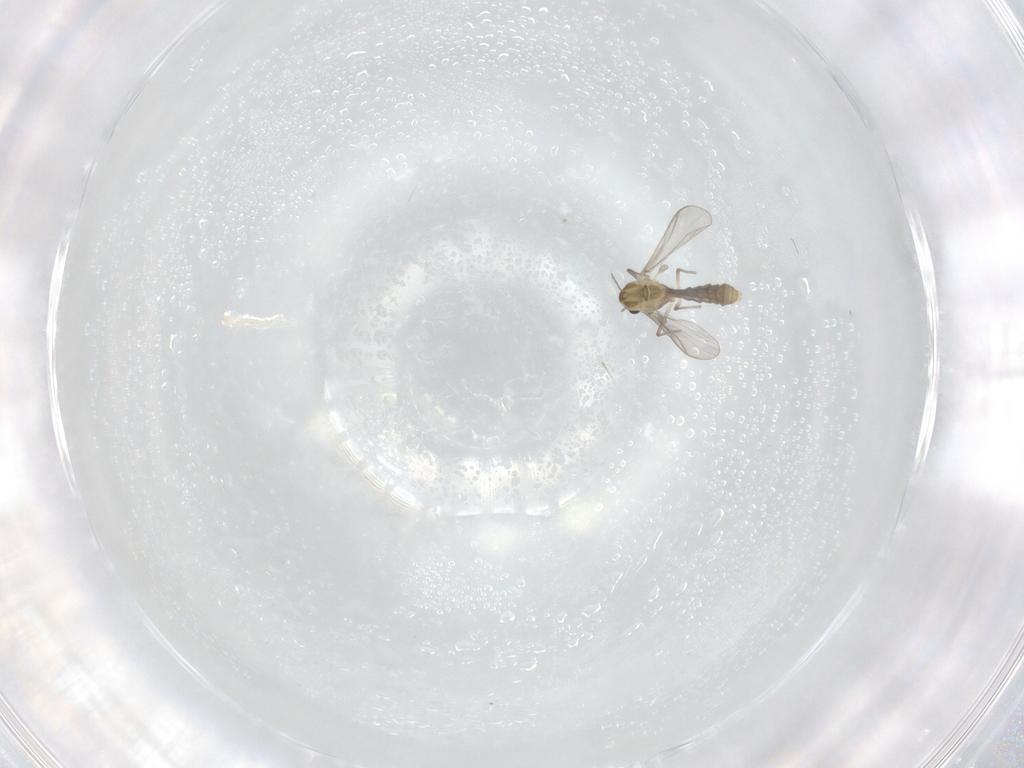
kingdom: Animalia
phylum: Arthropoda
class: Insecta
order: Diptera
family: Chironomidae
